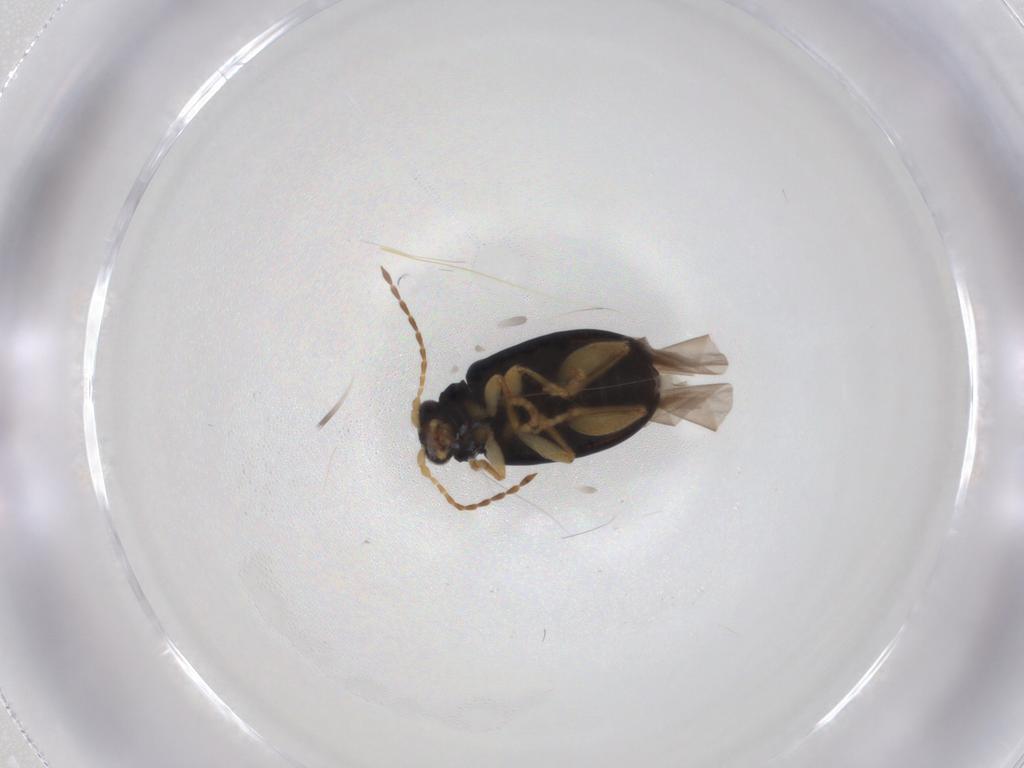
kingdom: Animalia
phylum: Arthropoda
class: Insecta
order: Coleoptera
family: Chrysomelidae
